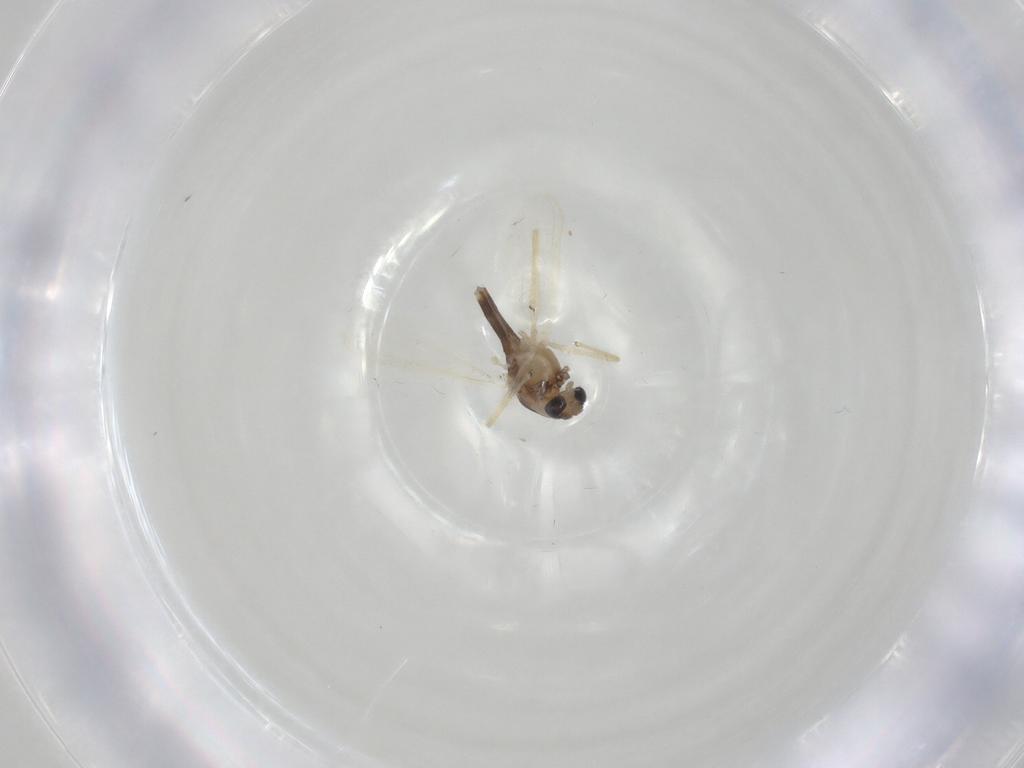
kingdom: Animalia
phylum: Arthropoda
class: Insecta
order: Diptera
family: Chironomidae
